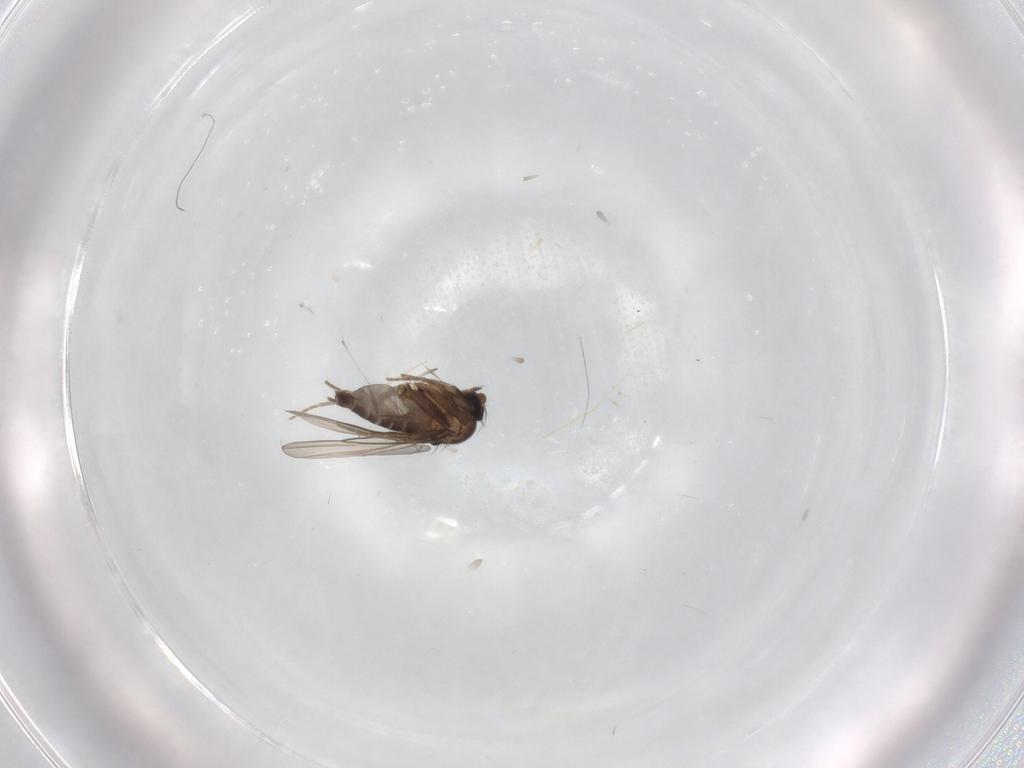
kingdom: Animalia
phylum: Arthropoda
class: Insecta
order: Diptera
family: Phoridae
